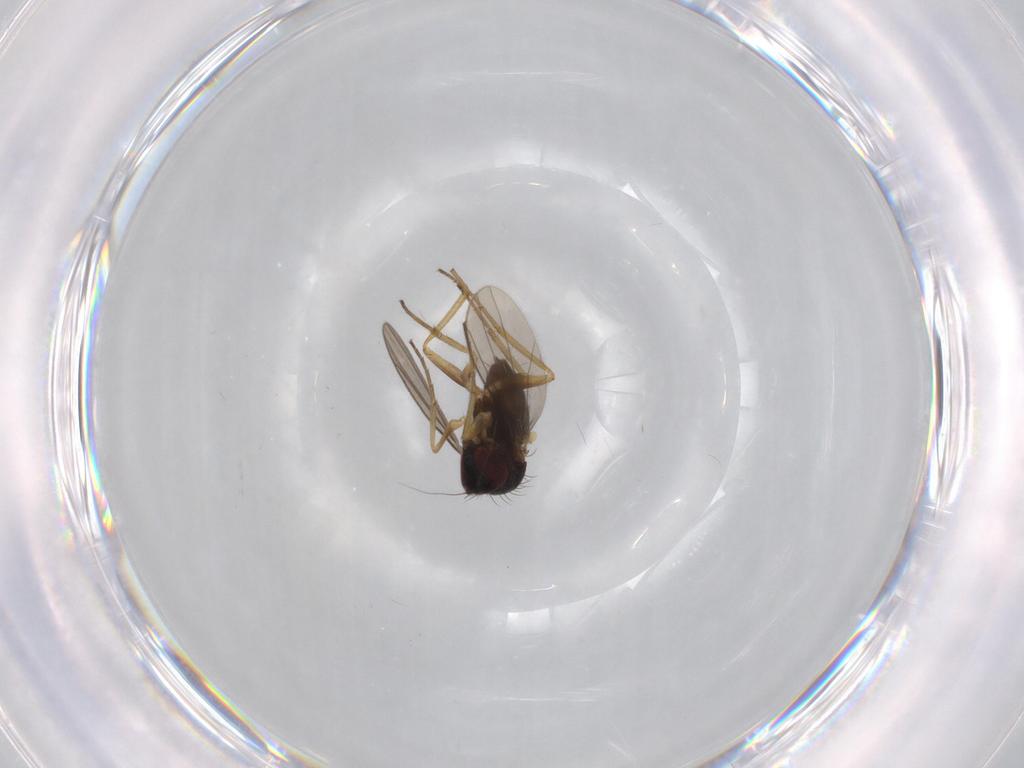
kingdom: Animalia
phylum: Arthropoda
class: Insecta
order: Diptera
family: Dolichopodidae
